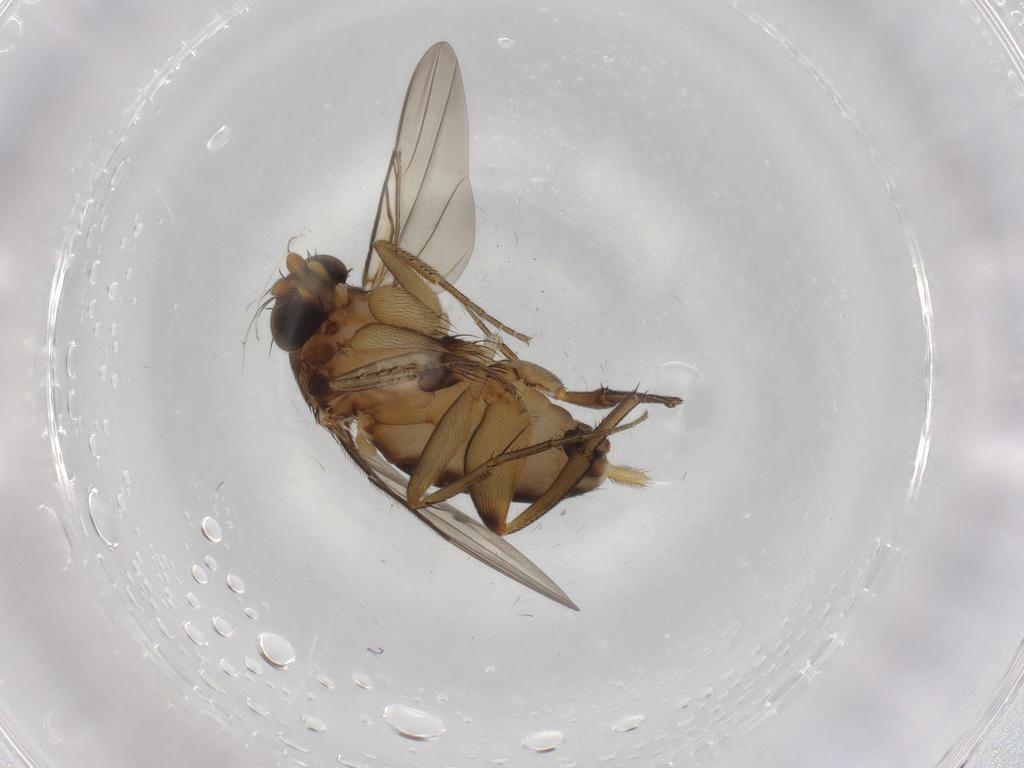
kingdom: Animalia
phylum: Arthropoda
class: Insecta
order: Diptera
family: Phoridae
